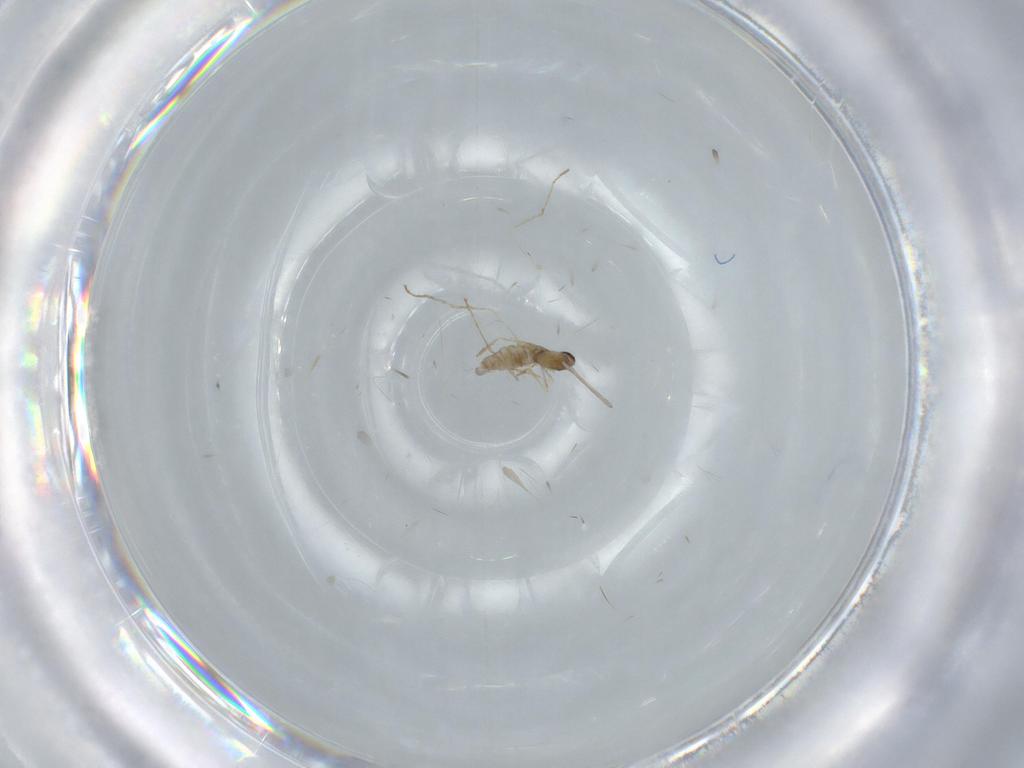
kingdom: Animalia
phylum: Arthropoda
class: Insecta
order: Diptera
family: Cecidomyiidae
